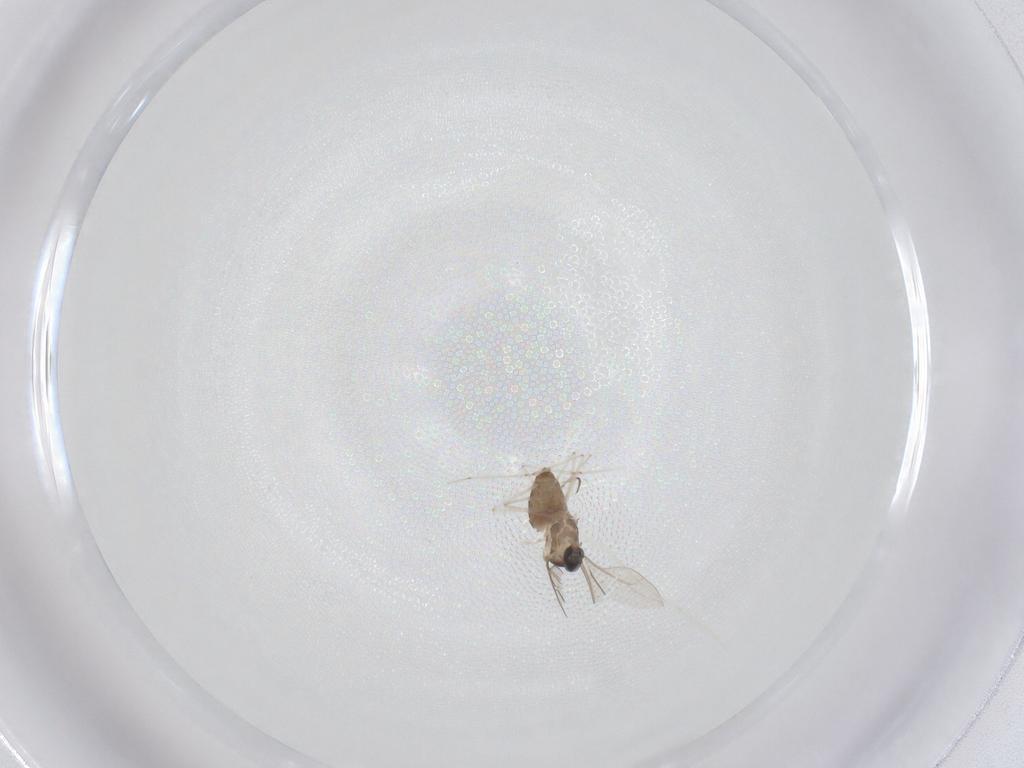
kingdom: Animalia
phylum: Arthropoda
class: Insecta
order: Diptera
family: Cecidomyiidae
